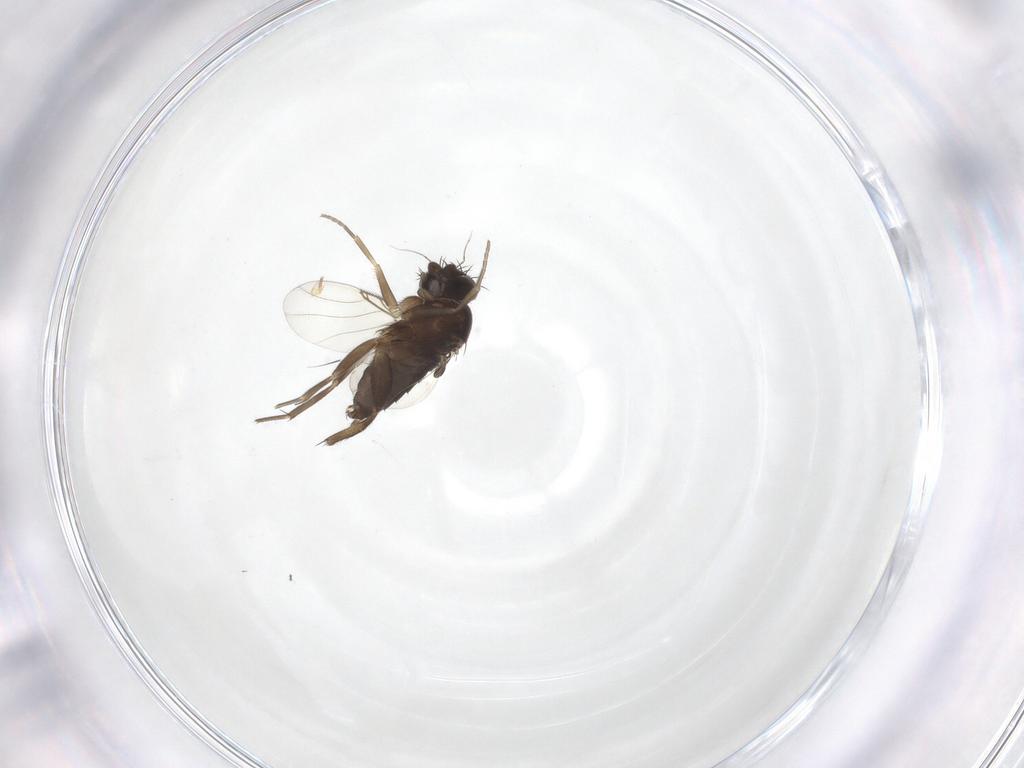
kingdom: Animalia
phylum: Arthropoda
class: Insecta
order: Diptera
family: Phoridae
